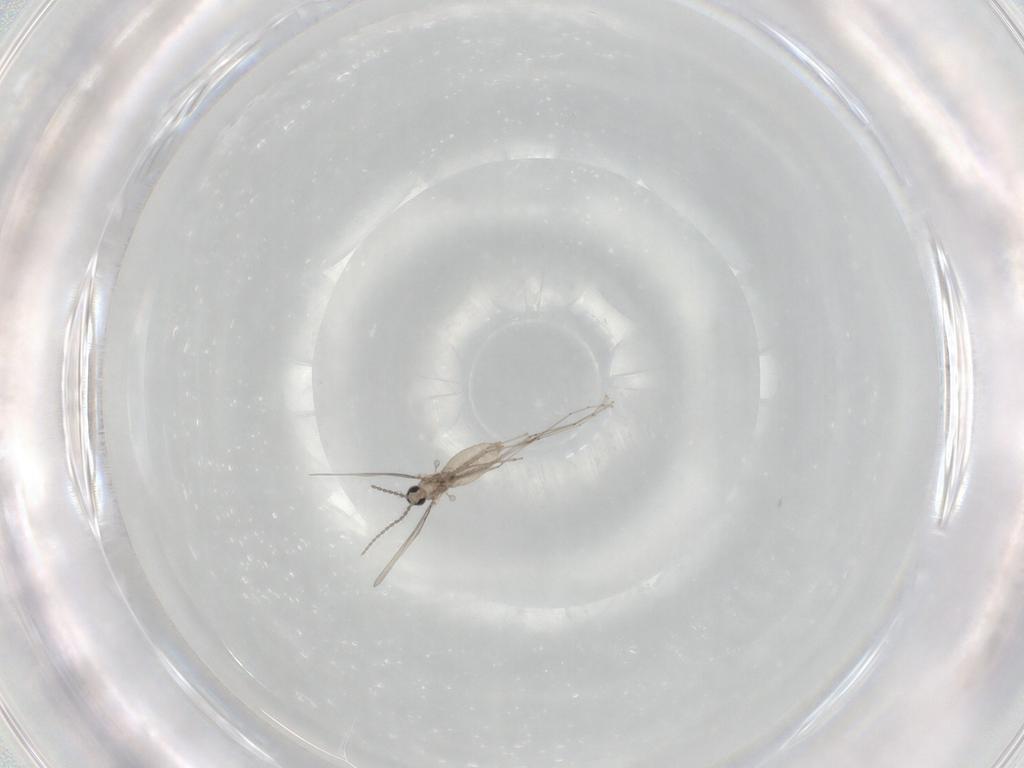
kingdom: Animalia
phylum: Arthropoda
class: Insecta
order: Diptera
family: Cecidomyiidae
